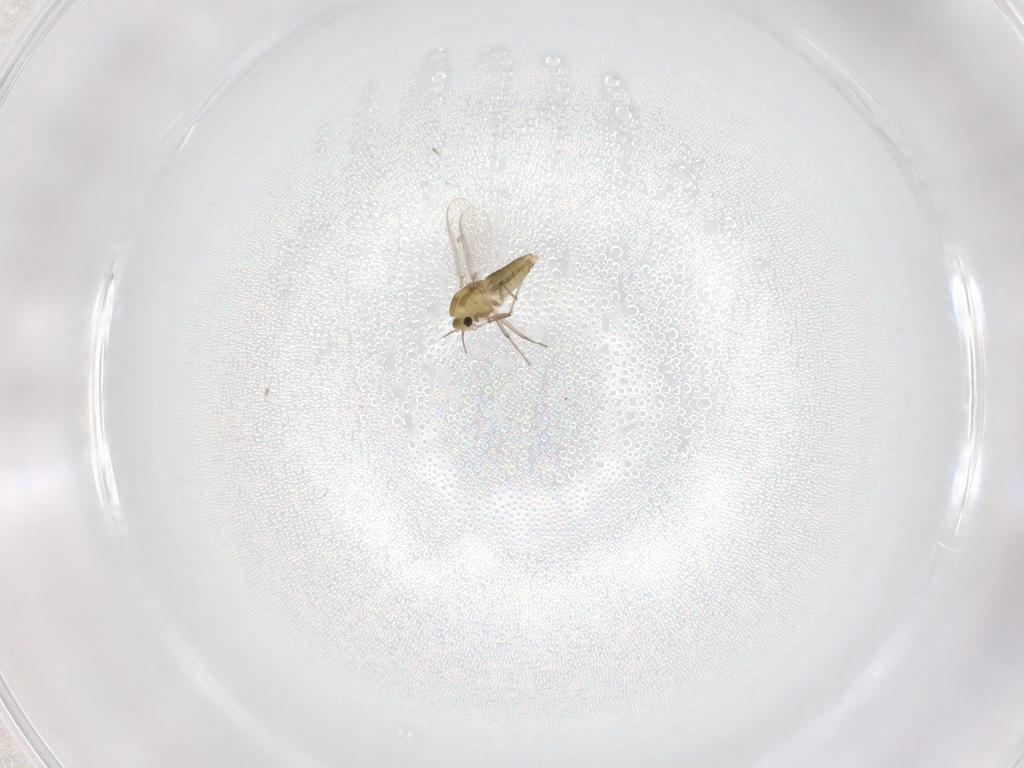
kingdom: Animalia
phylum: Arthropoda
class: Insecta
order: Diptera
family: Chironomidae
